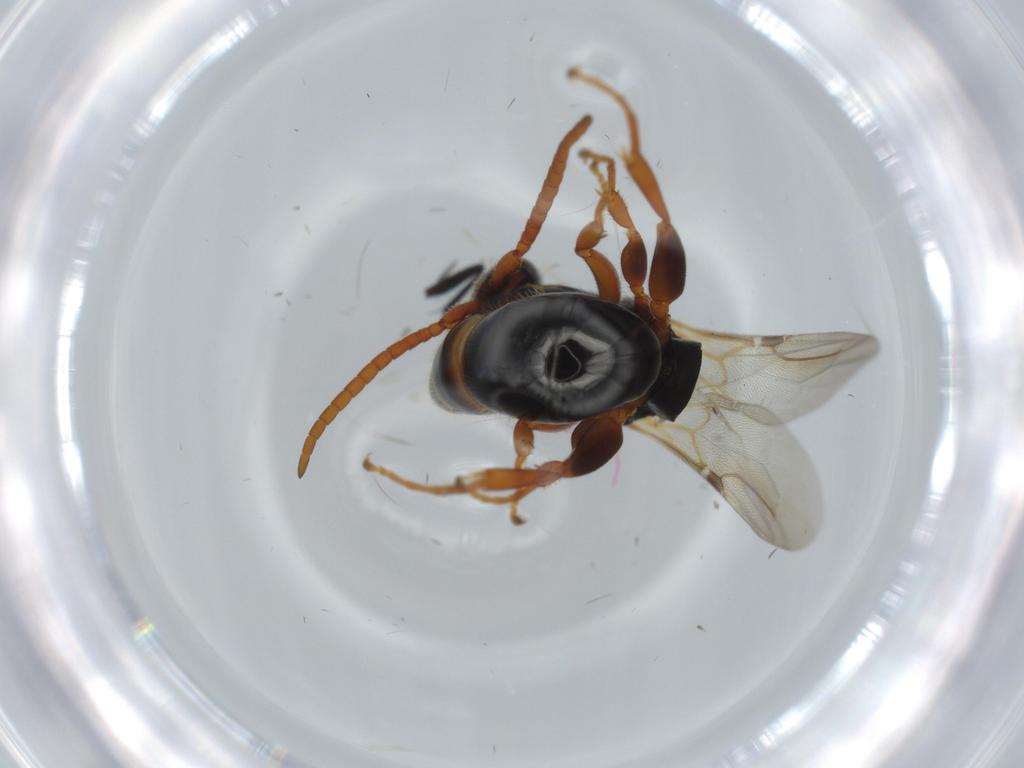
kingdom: Animalia
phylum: Arthropoda
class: Insecta
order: Hymenoptera
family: Bethylidae
